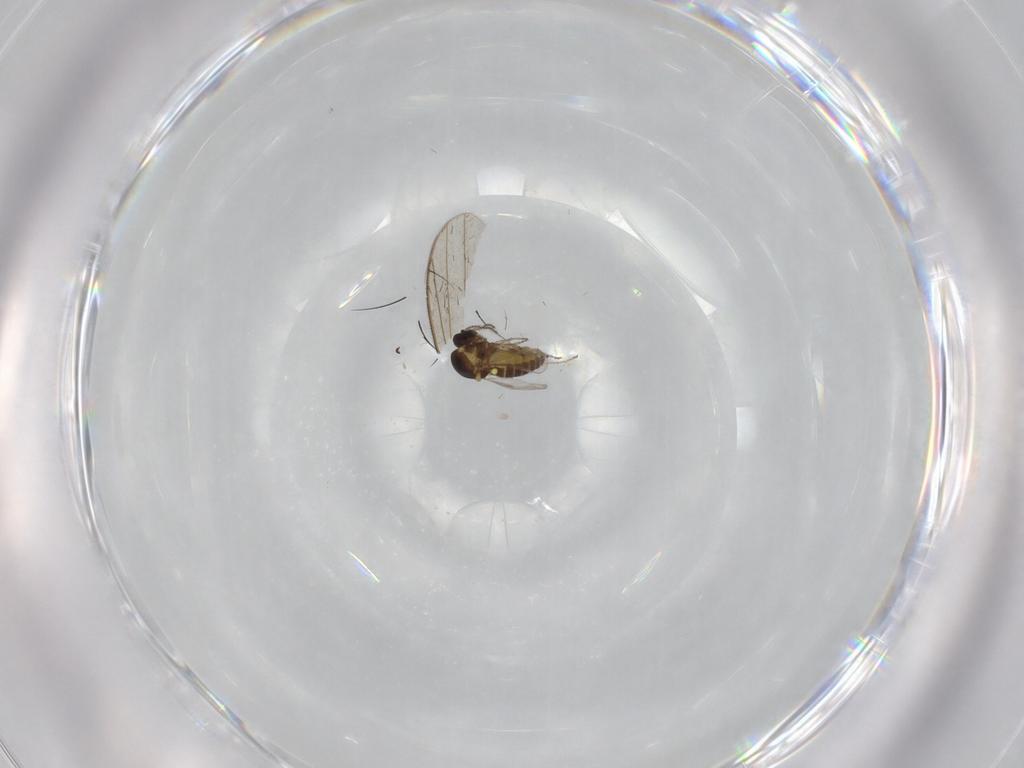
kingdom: Animalia
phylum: Arthropoda
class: Insecta
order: Diptera
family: Ceratopogonidae
